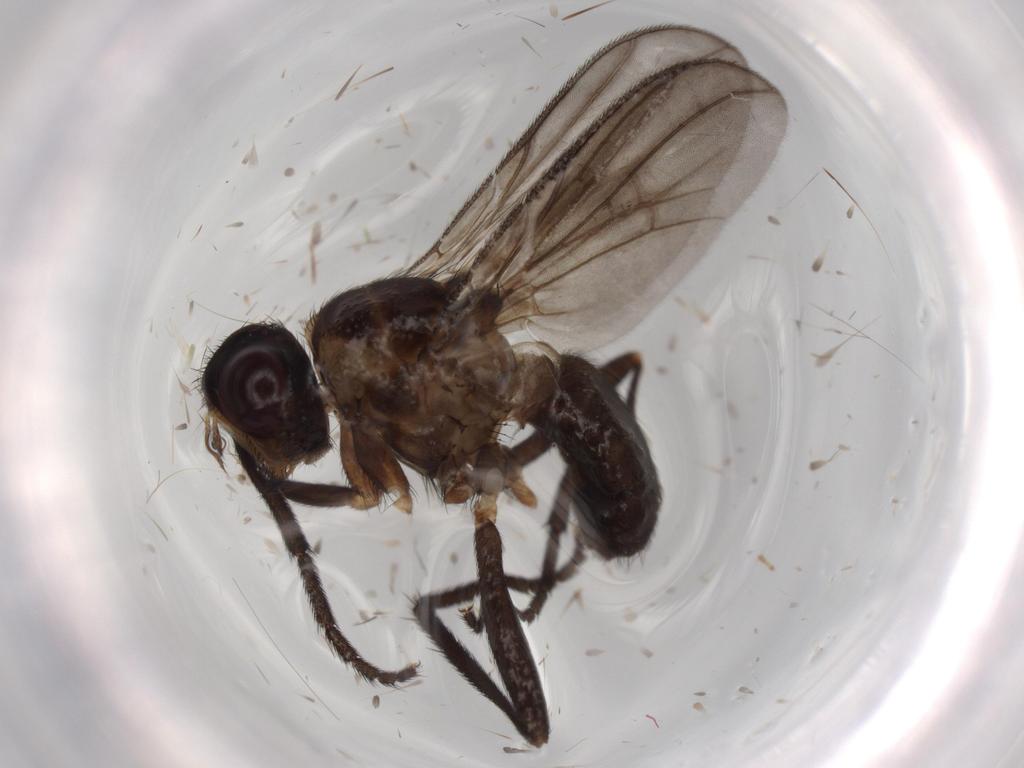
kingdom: Animalia
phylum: Arthropoda
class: Insecta
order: Diptera
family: Calliphoridae
